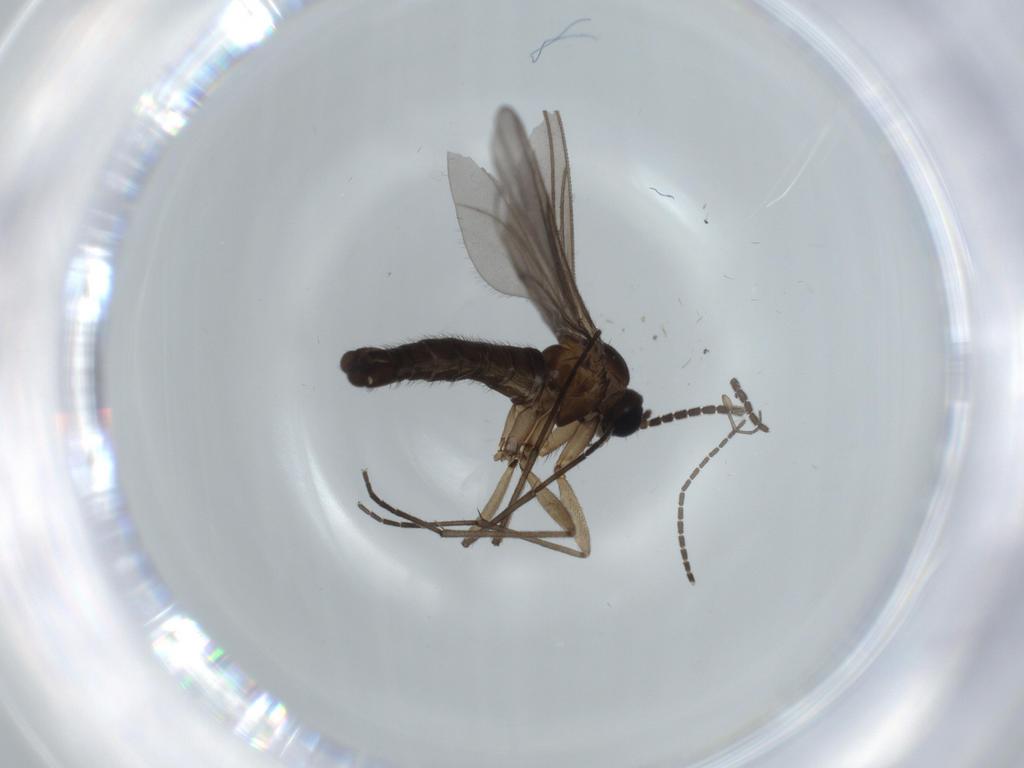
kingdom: Animalia
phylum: Arthropoda
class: Insecta
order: Diptera
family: Sciaridae
